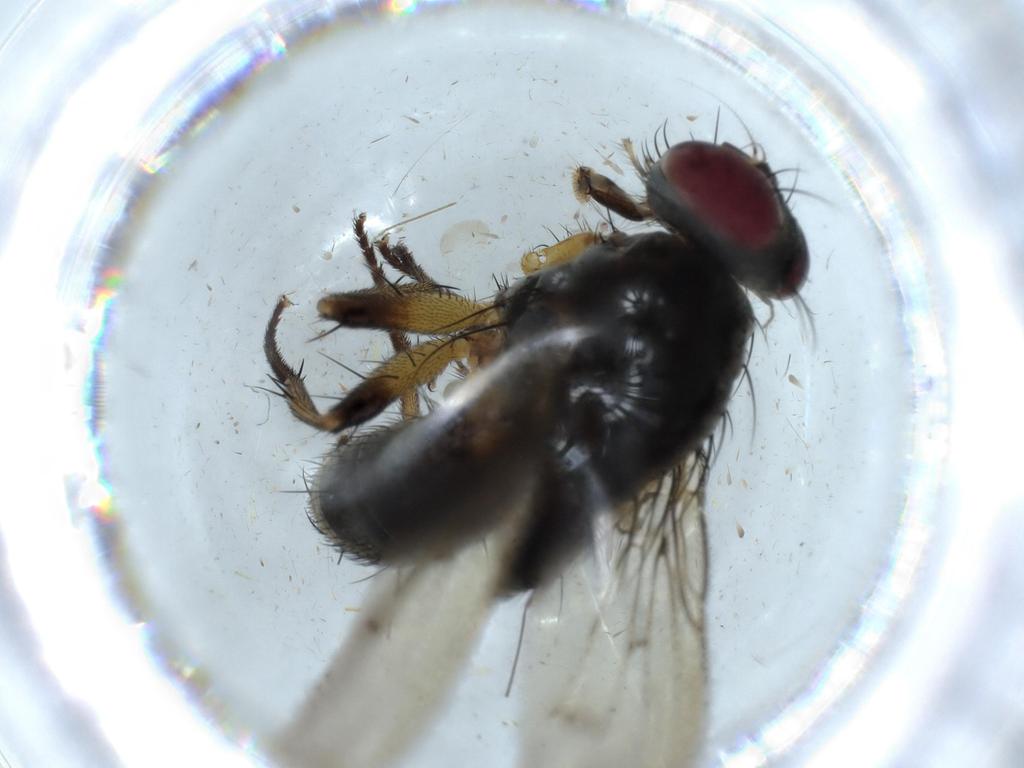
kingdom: Animalia
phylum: Arthropoda
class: Insecta
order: Diptera
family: Muscidae
